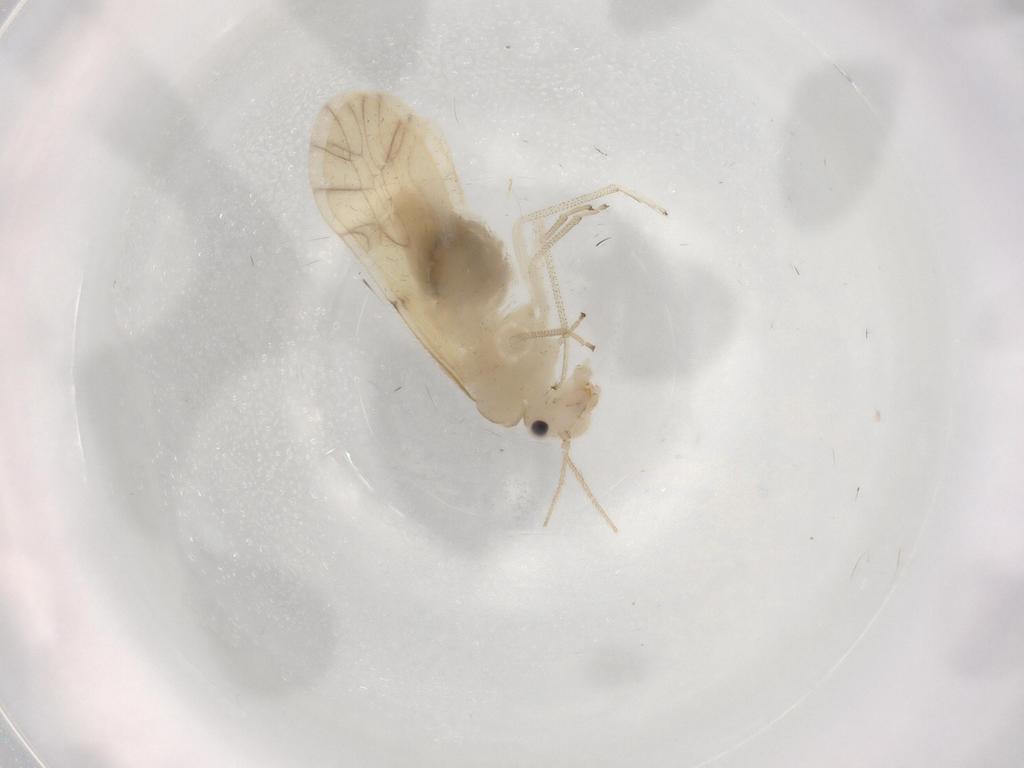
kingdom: Animalia
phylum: Arthropoda
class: Insecta
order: Psocodea
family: Caeciliusidae
